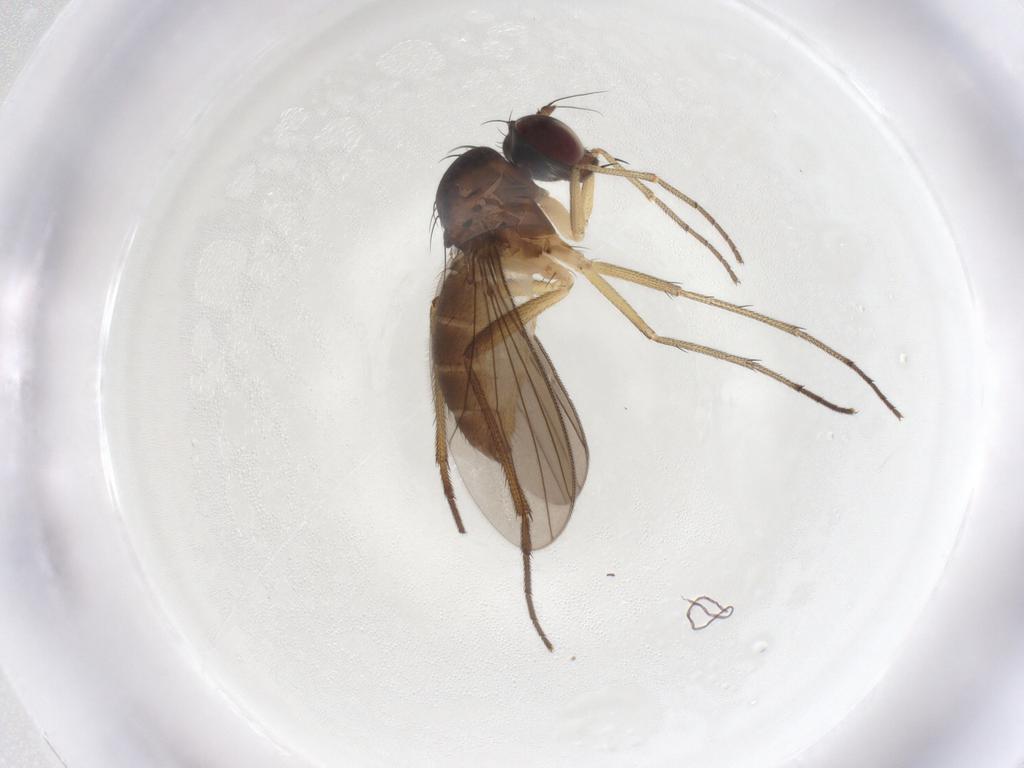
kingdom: Animalia
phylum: Arthropoda
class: Insecta
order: Diptera
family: Dolichopodidae
